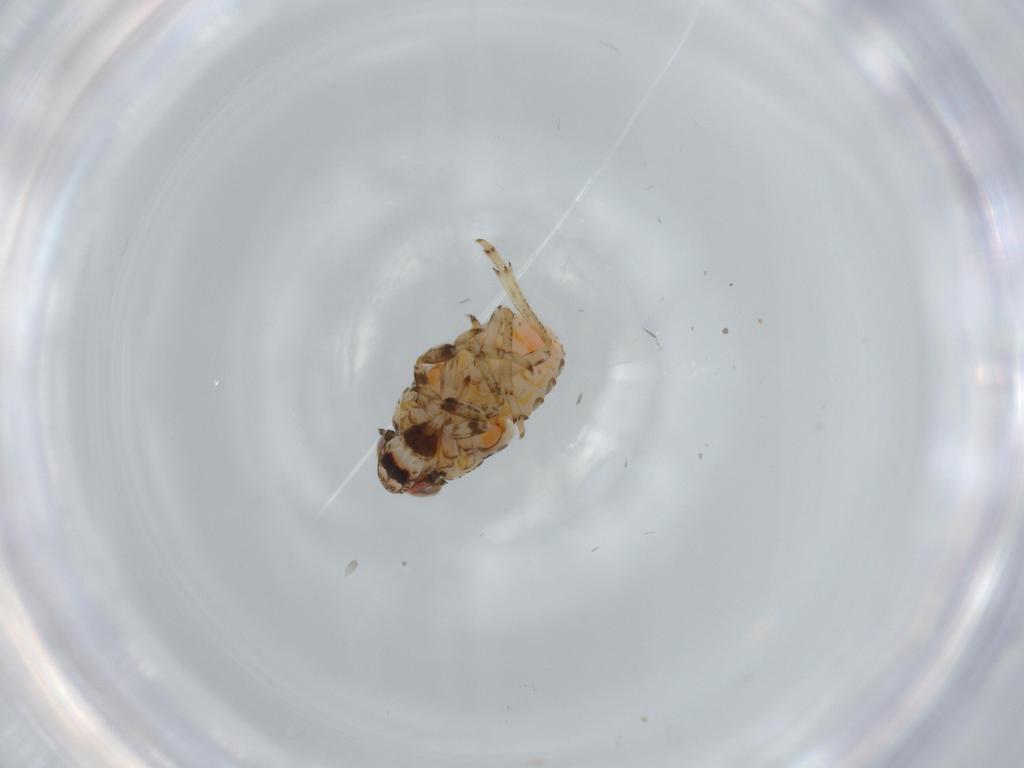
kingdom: Animalia
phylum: Arthropoda
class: Insecta
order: Hemiptera
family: Issidae
